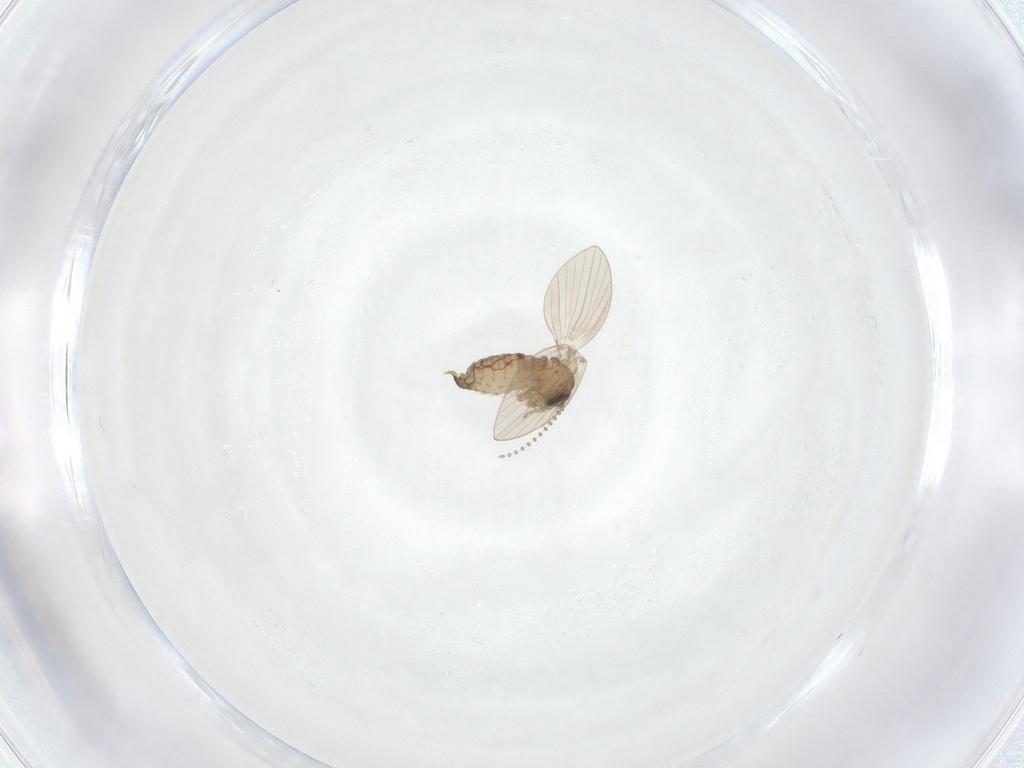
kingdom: Animalia
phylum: Arthropoda
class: Insecta
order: Diptera
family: Psychodidae
